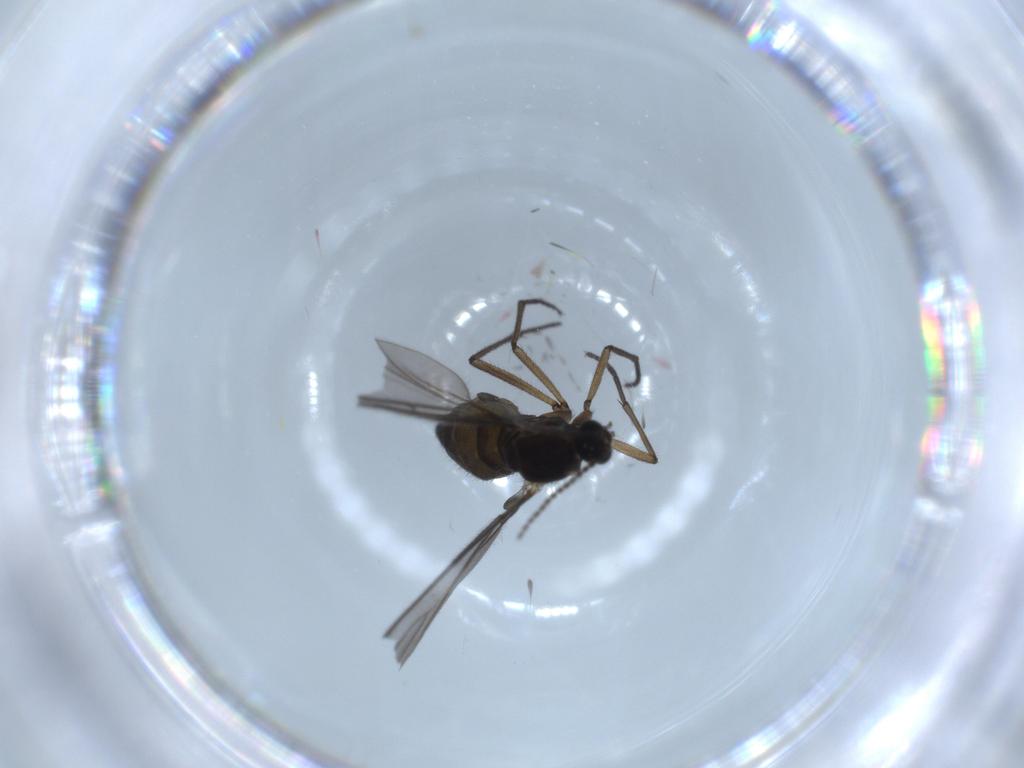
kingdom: Animalia
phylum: Arthropoda
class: Insecta
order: Diptera
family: Sciaridae
